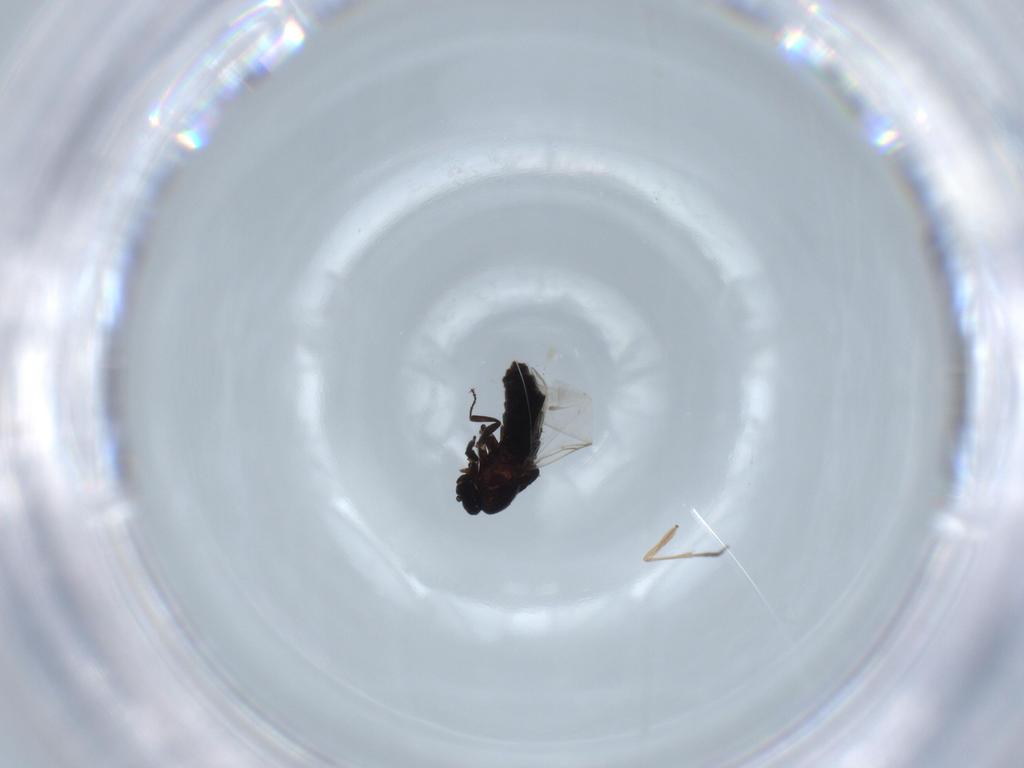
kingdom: Animalia
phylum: Arthropoda
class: Insecta
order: Diptera
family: Scatopsidae
